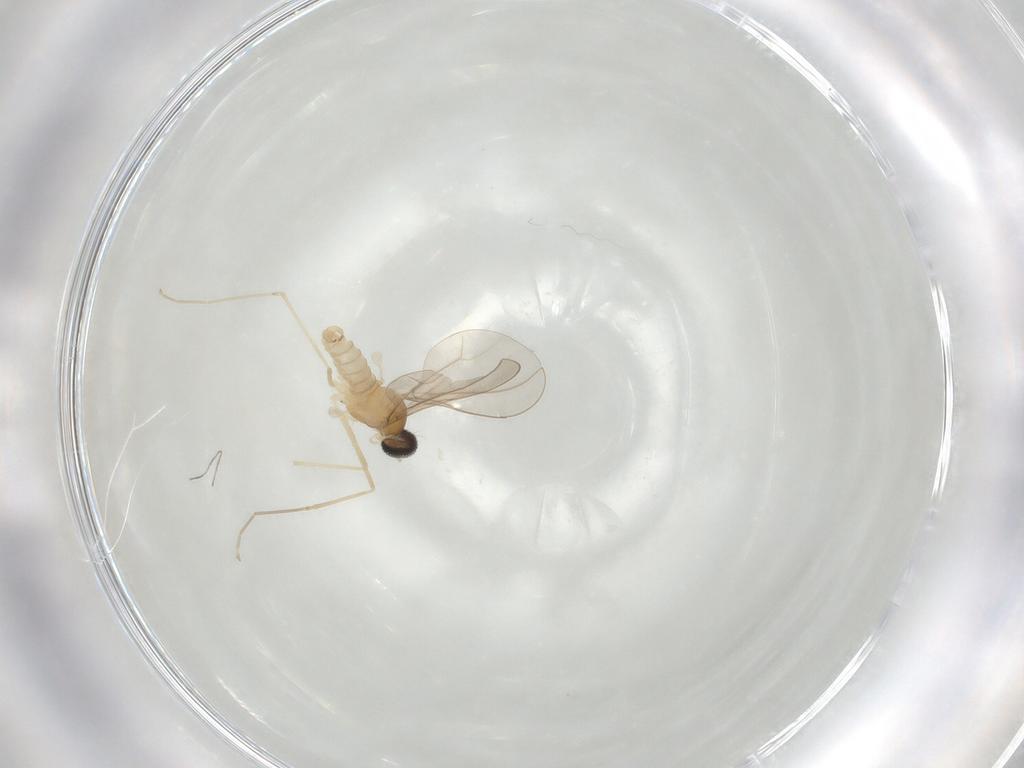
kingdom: Animalia
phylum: Arthropoda
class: Insecta
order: Diptera
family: Cecidomyiidae
